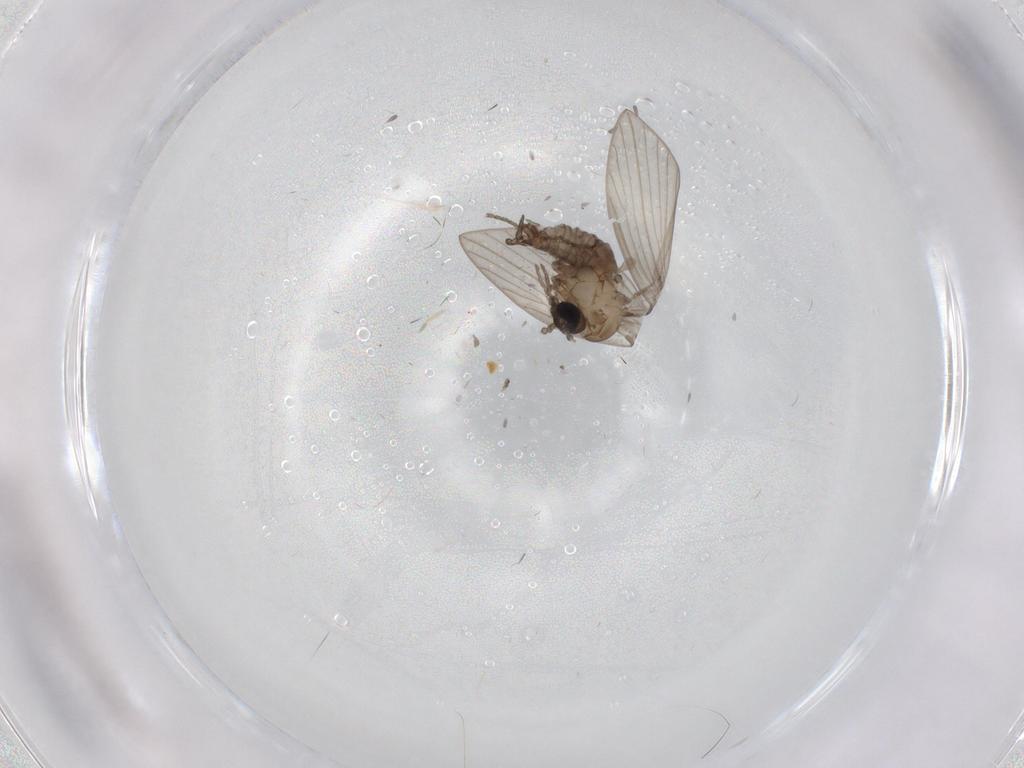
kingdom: Animalia
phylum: Arthropoda
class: Insecta
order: Diptera
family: Psychodidae
